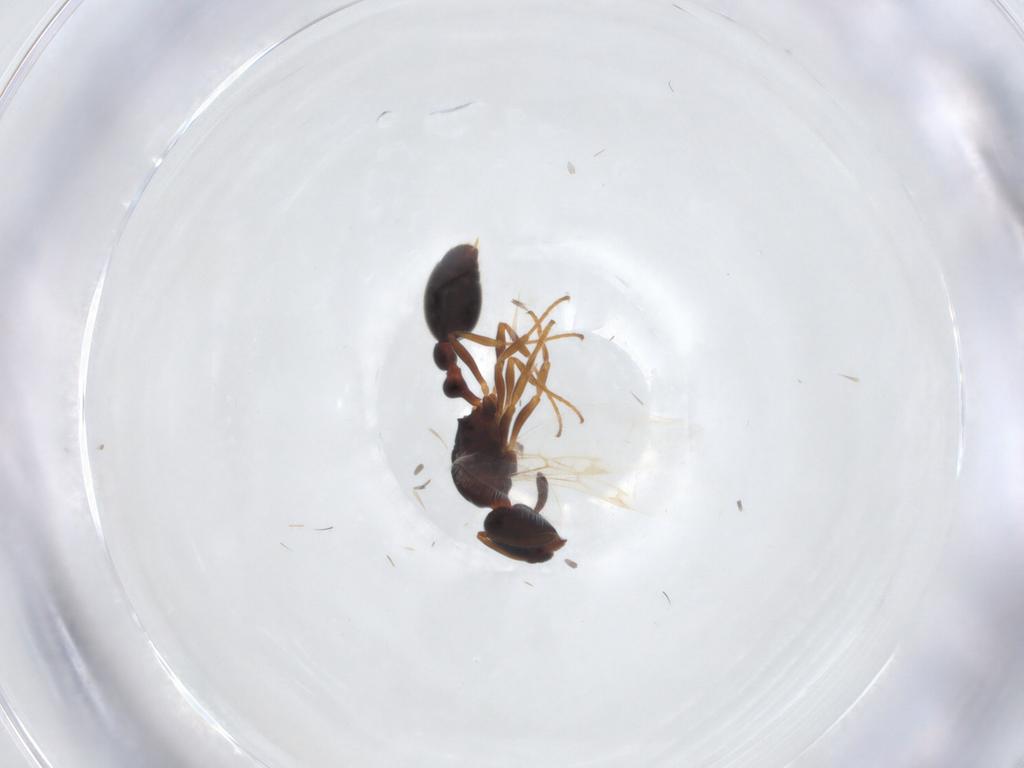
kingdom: Animalia
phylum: Arthropoda
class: Insecta
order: Hymenoptera
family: Formicidae
